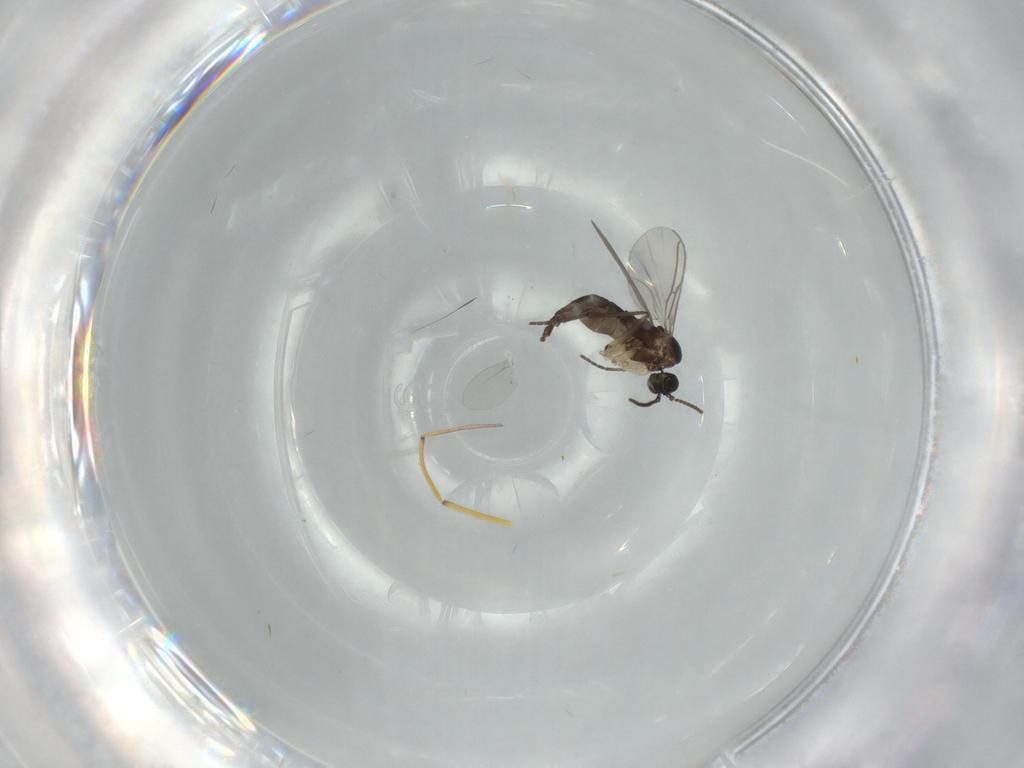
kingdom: Animalia
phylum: Arthropoda
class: Insecta
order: Diptera
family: Sciaridae
